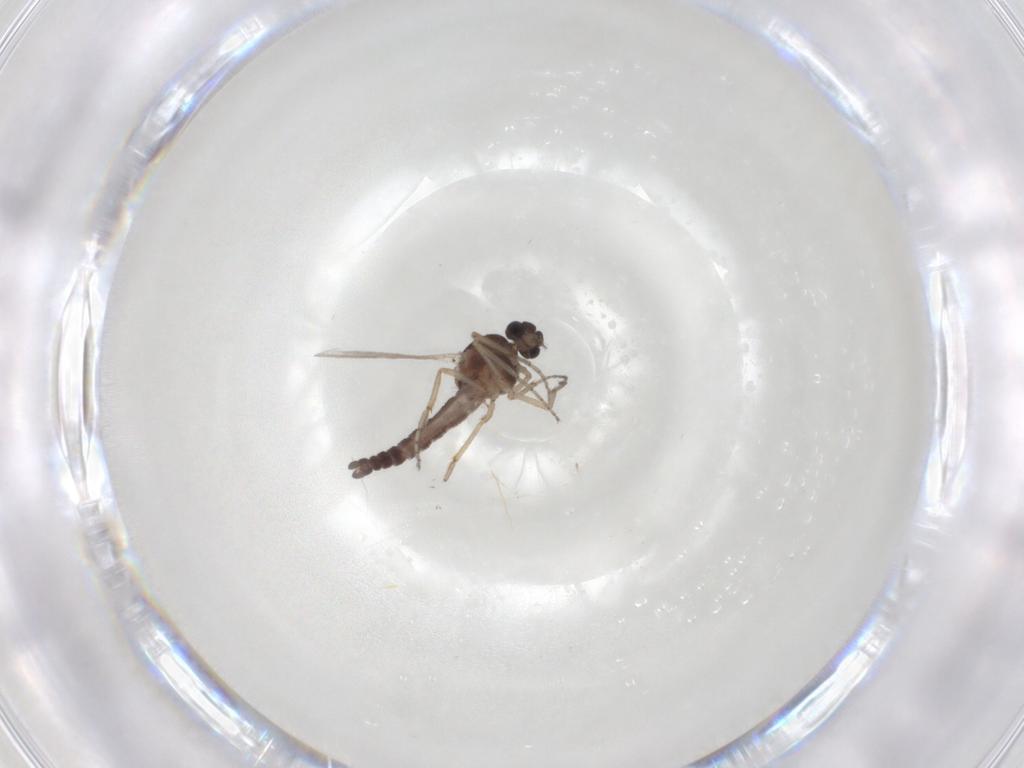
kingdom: Animalia
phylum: Arthropoda
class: Insecta
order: Diptera
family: Ceratopogonidae
